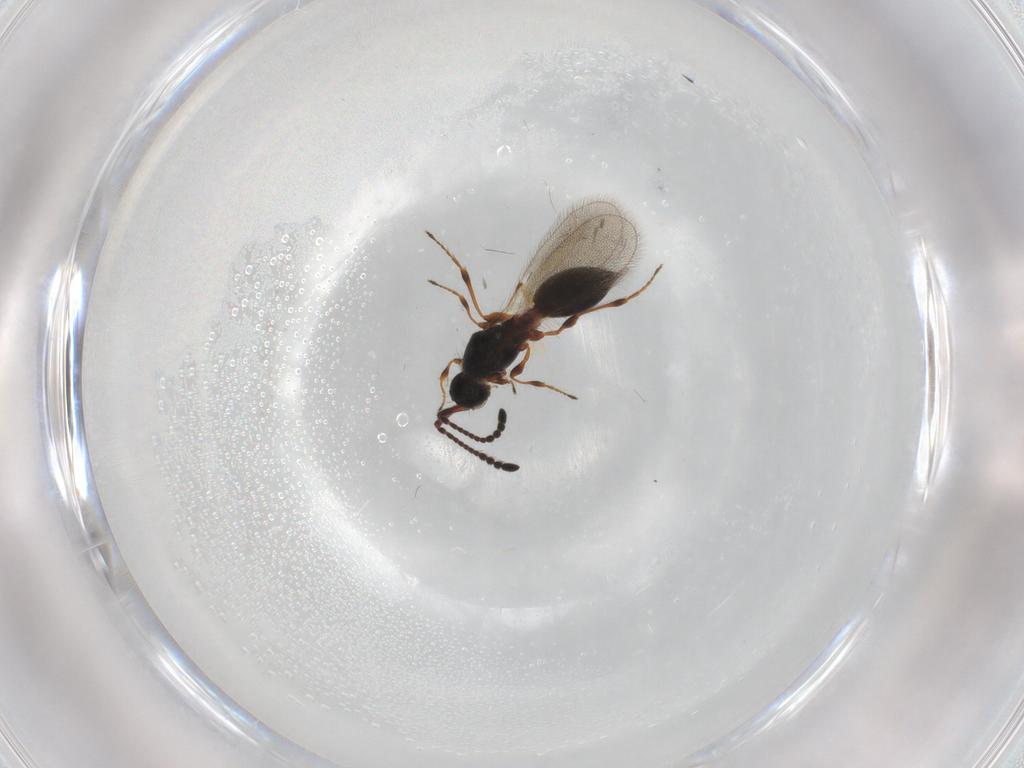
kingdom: Animalia
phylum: Arthropoda
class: Insecta
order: Hymenoptera
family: Diapriidae
